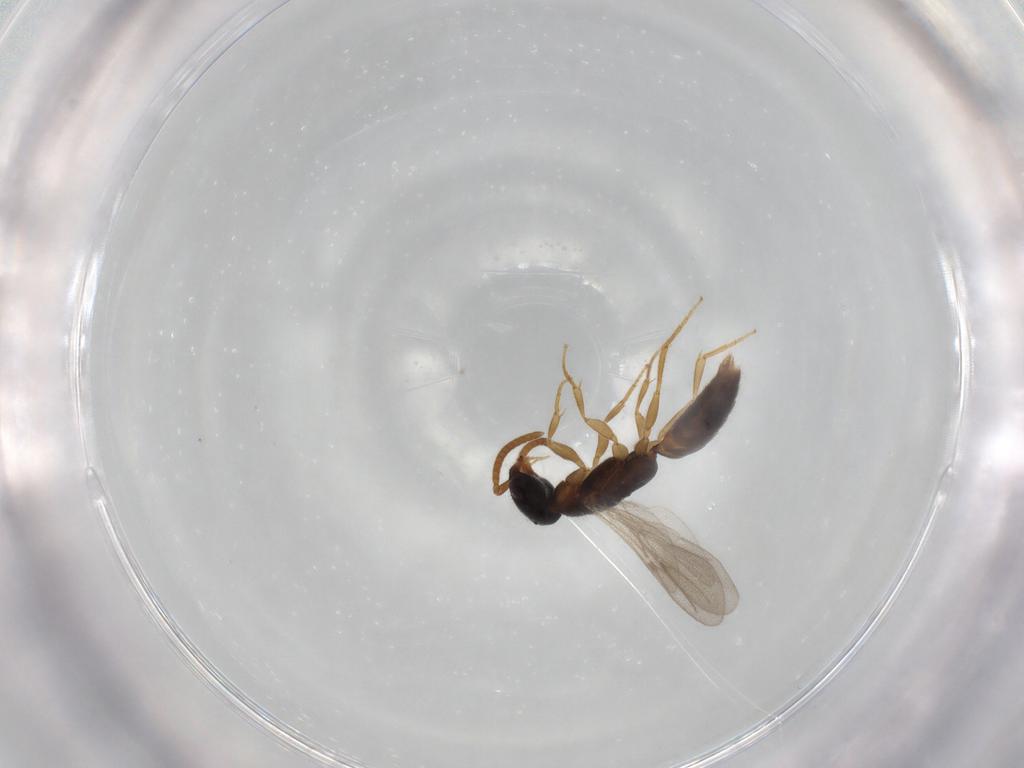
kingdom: Animalia
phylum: Arthropoda
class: Insecta
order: Hymenoptera
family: Bethylidae
